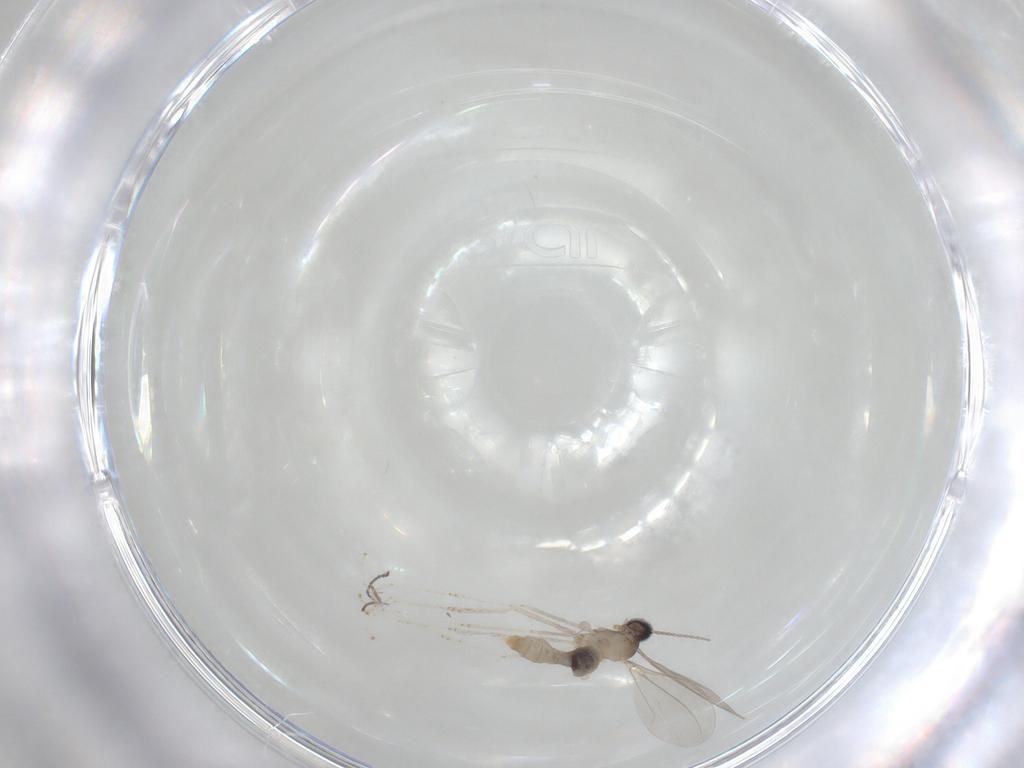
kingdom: Animalia
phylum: Arthropoda
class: Insecta
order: Diptera
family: Cecidomyiidae
